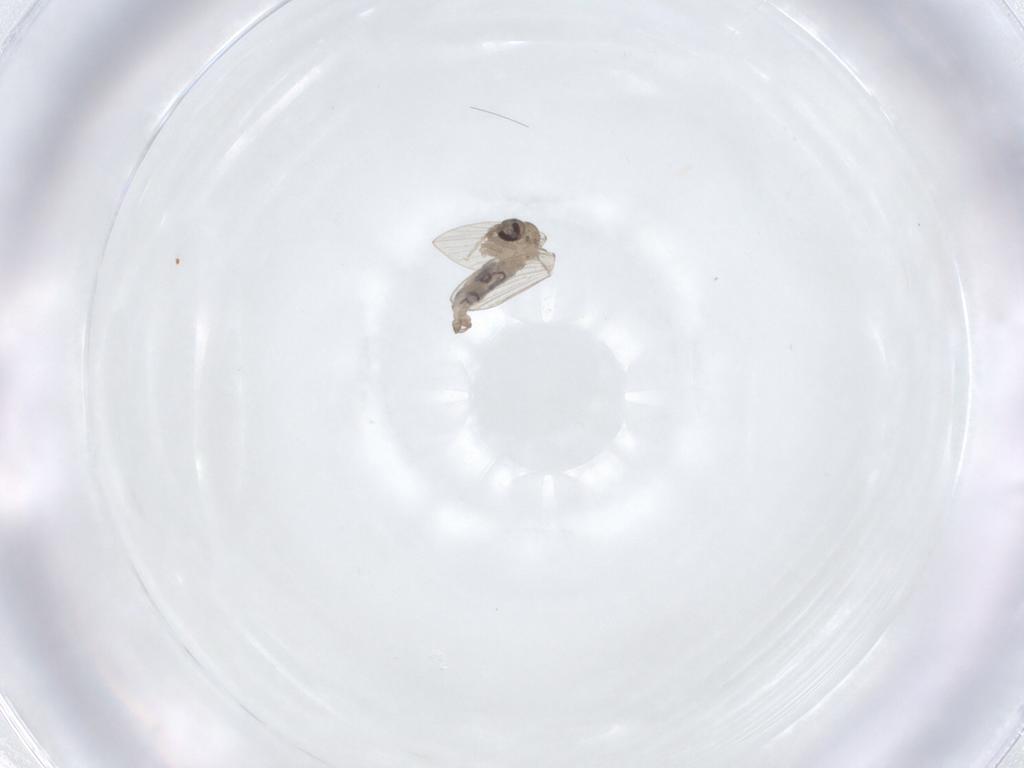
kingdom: Animalia
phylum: Arthropoda
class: Insecta
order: Diptera
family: Psychodidae
